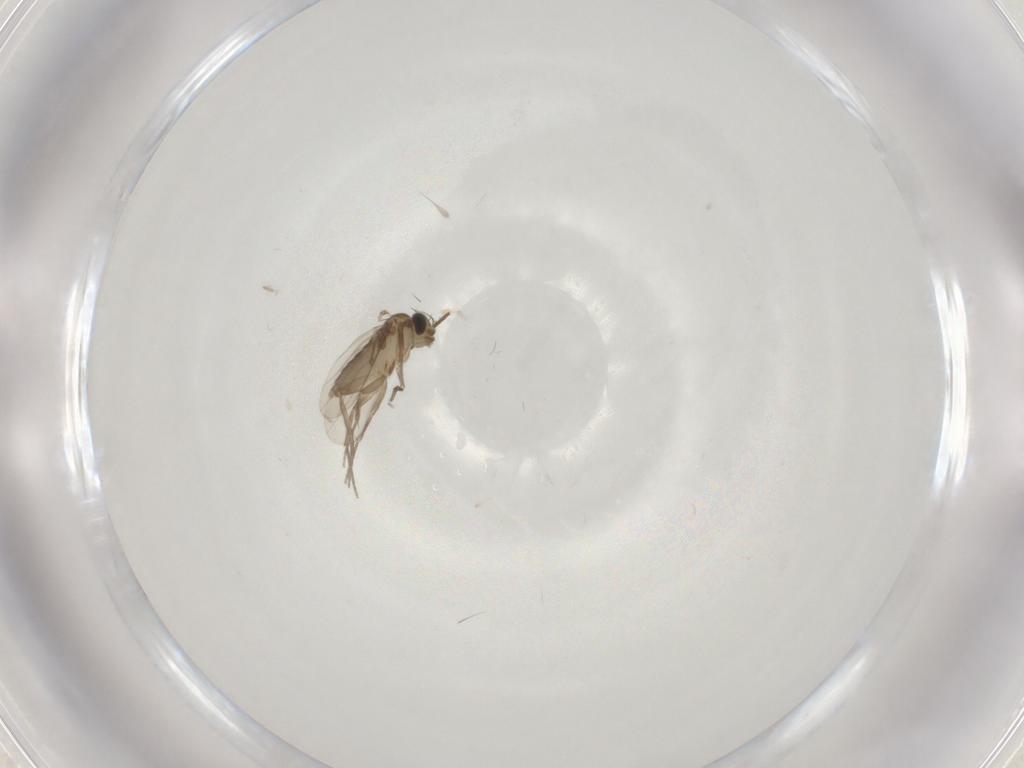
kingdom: Animalia
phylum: Arthropoda
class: Insecta
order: Diptera
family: Phoridae
